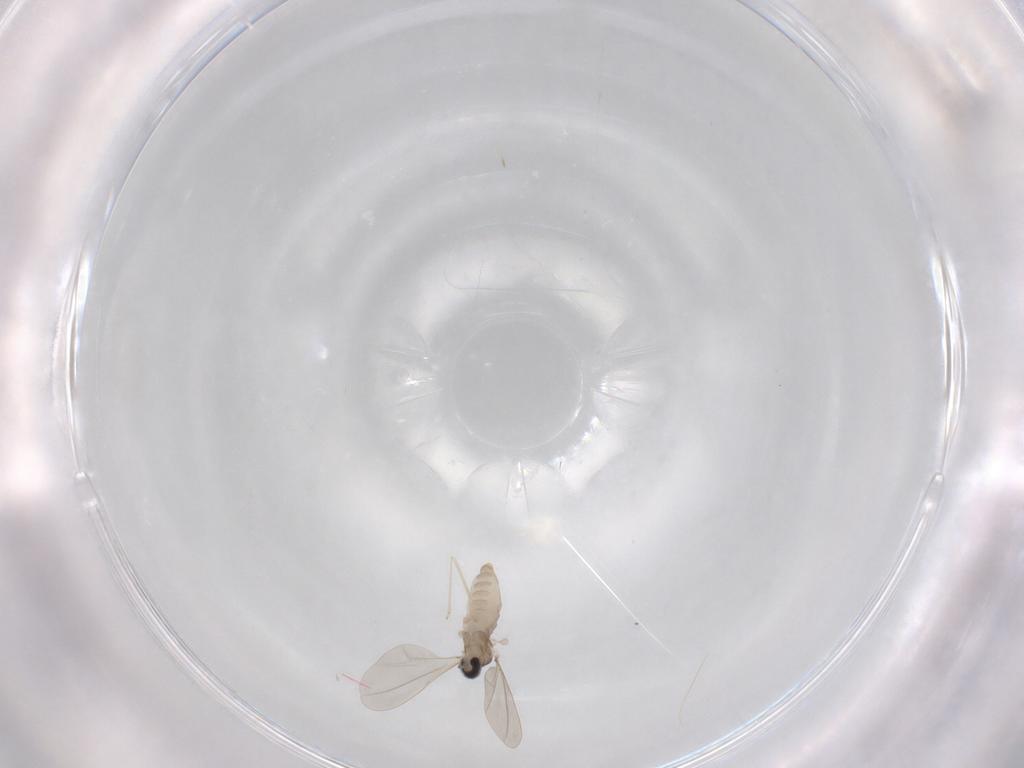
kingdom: Animalia
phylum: Arthropoda
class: Insecta
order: Diptera
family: Cecidomyiidae
